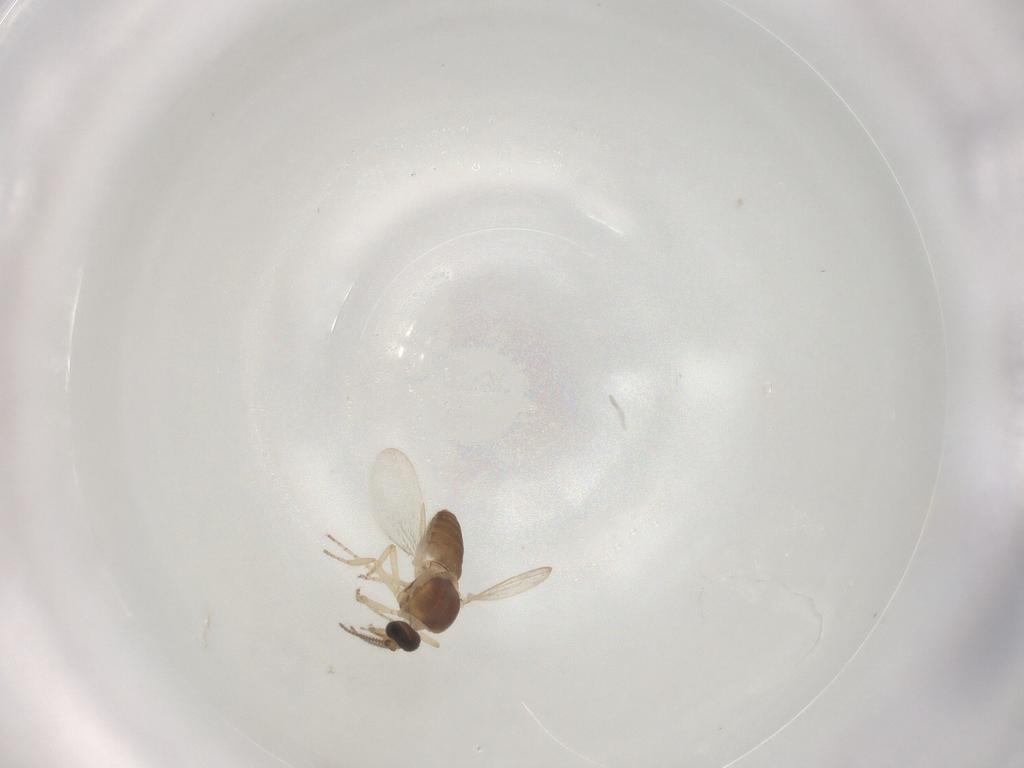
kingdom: Animalia
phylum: Arthropoda
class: Insecta
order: Diptera
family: Ceratopogonidae
